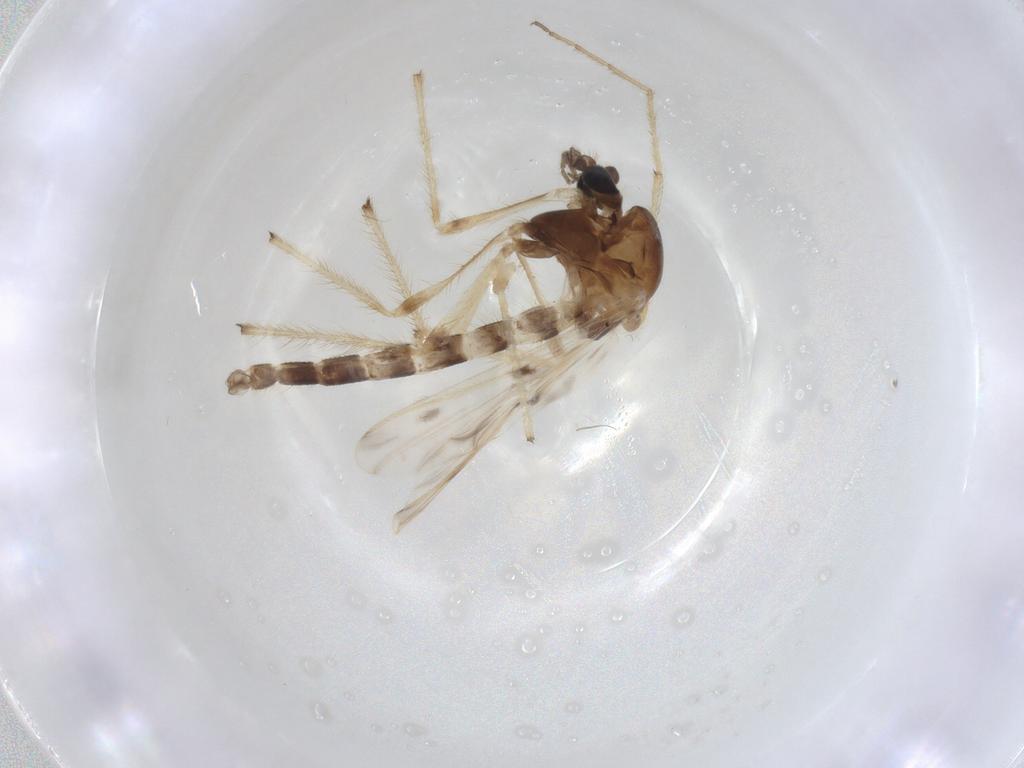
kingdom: Animalia
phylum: Arthropoda
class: Insecta
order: Diptera
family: Chironomidae
